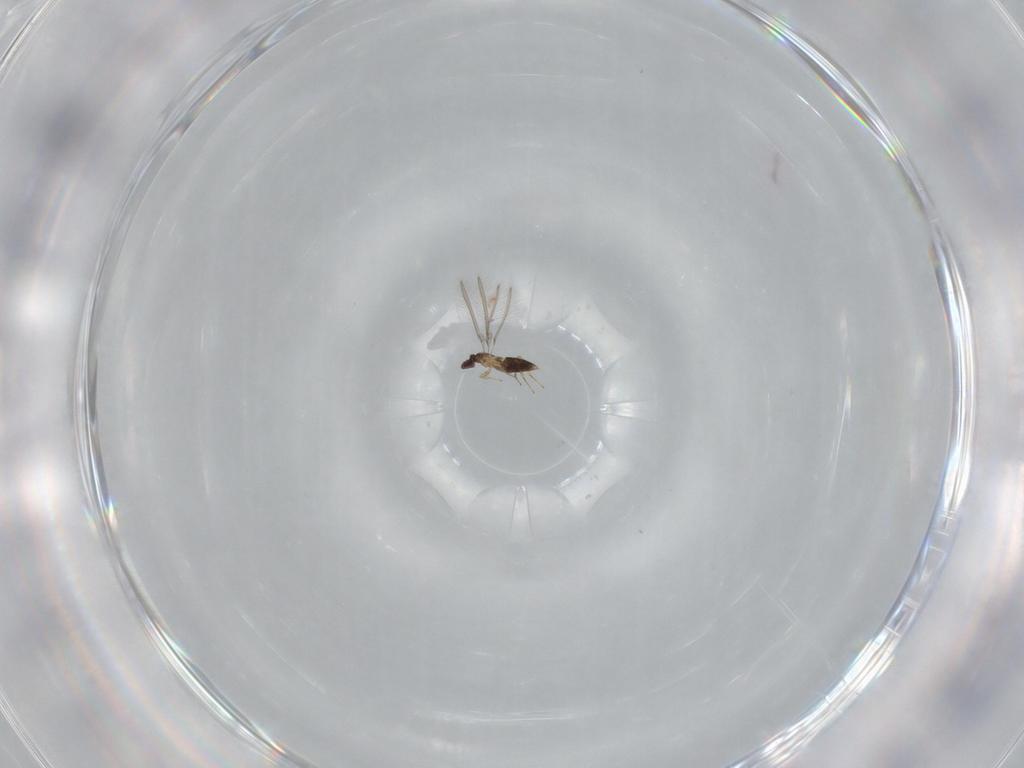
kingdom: Animalia
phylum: Arthropoda
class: Insecta
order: Hymenoptera
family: Mymaridae
